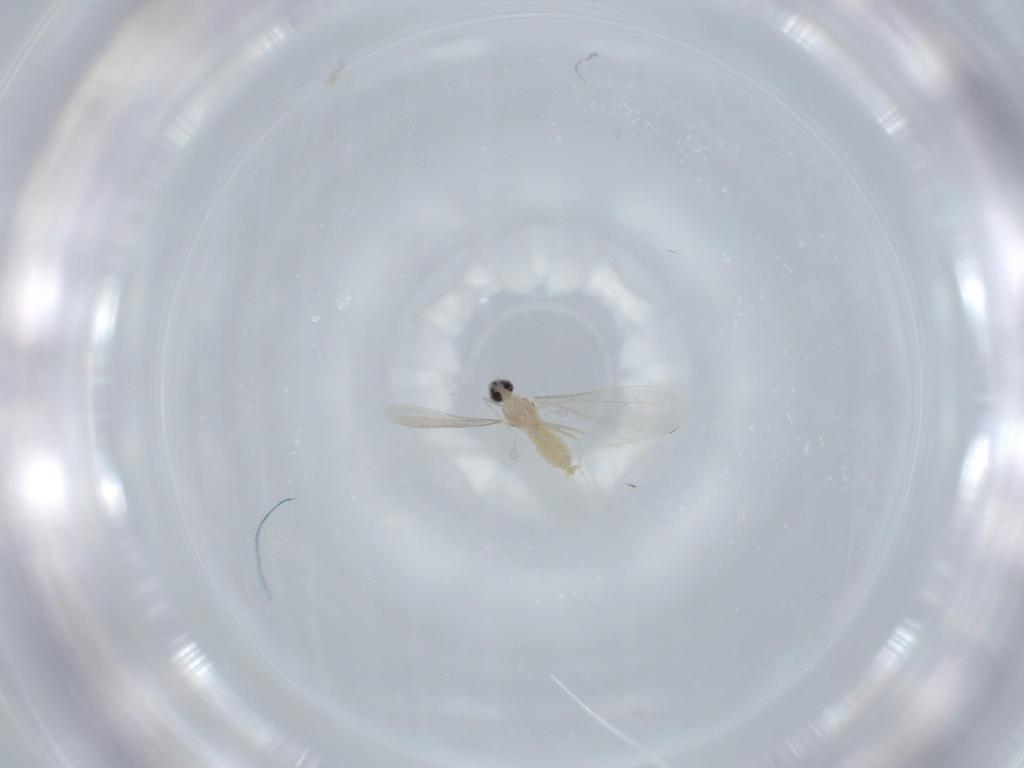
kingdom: Animalia
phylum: Arthropoda
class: Insecta
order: Diptera
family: Cecidomyiidae
